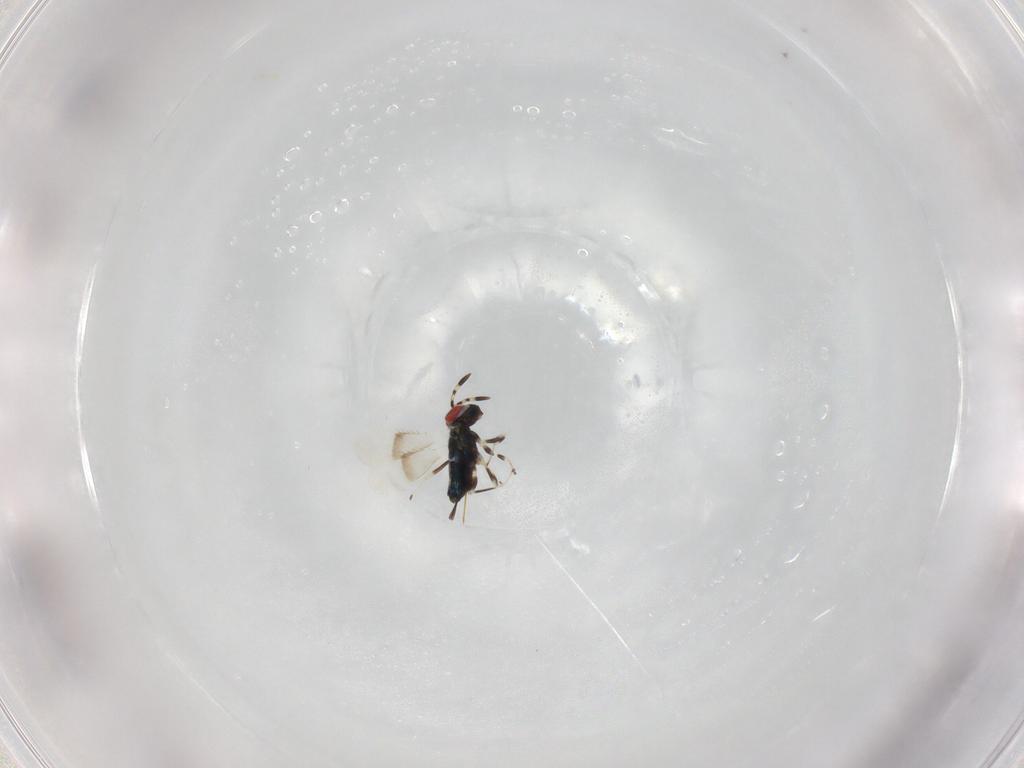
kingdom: Animalia
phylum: Arthropoda
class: Insecta
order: Hymenoptera
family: Azotidae
